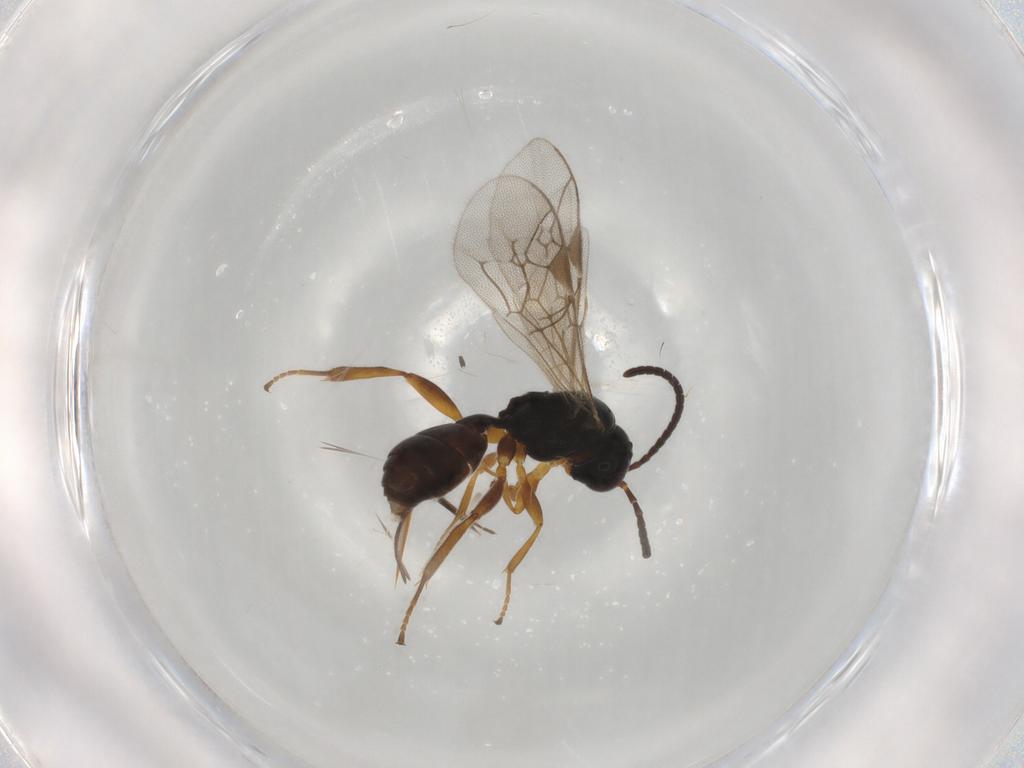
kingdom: Animalia
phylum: Arthropoda
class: Insecta
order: Hymenoptera
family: Ichneumonidae
